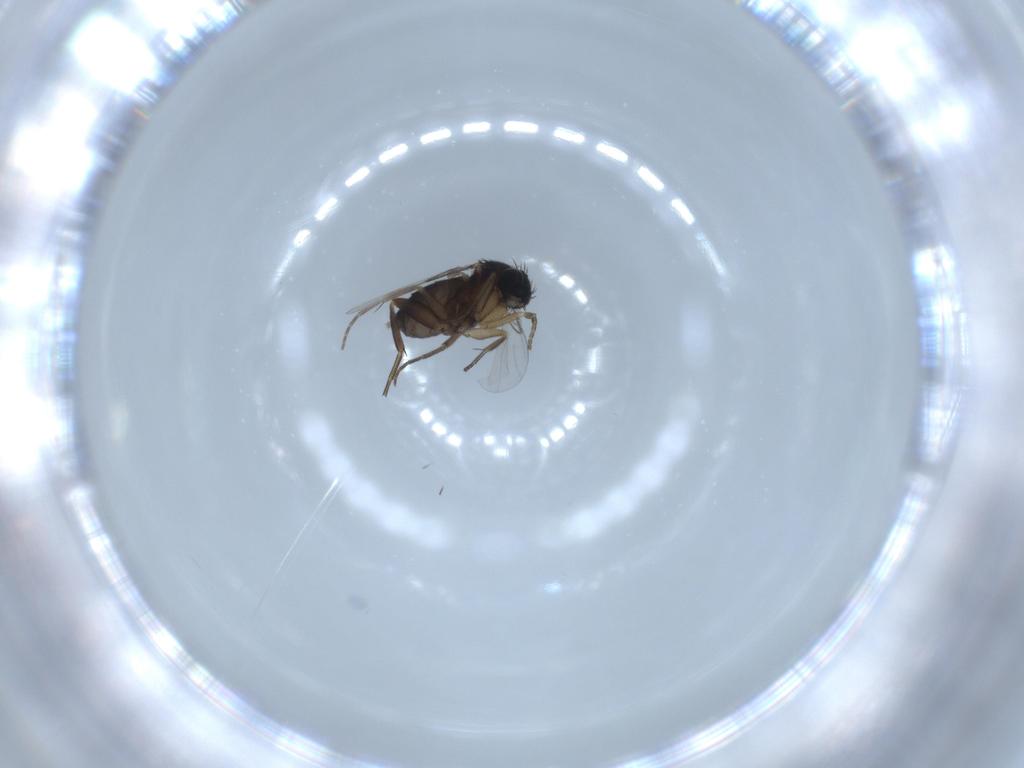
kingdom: Animalia
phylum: Arthropoda
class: Insecta
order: Diptera
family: Phoridae
